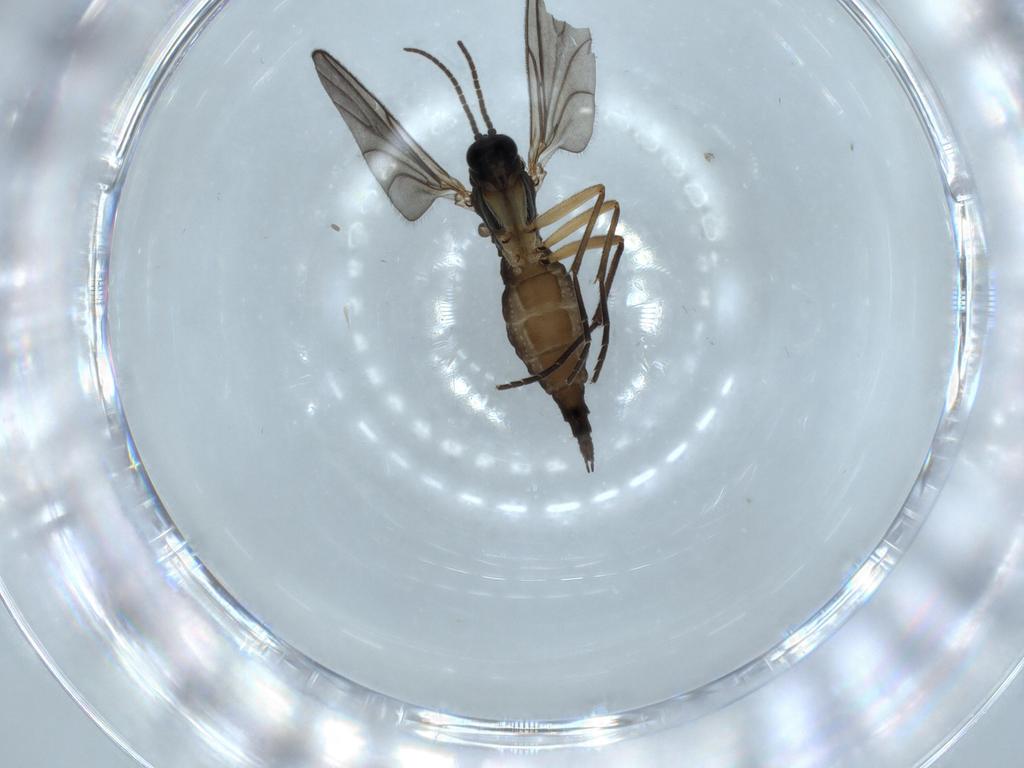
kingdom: Animalia
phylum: Arthropoda
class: Insecta
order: Diptera
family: Sciaridae
